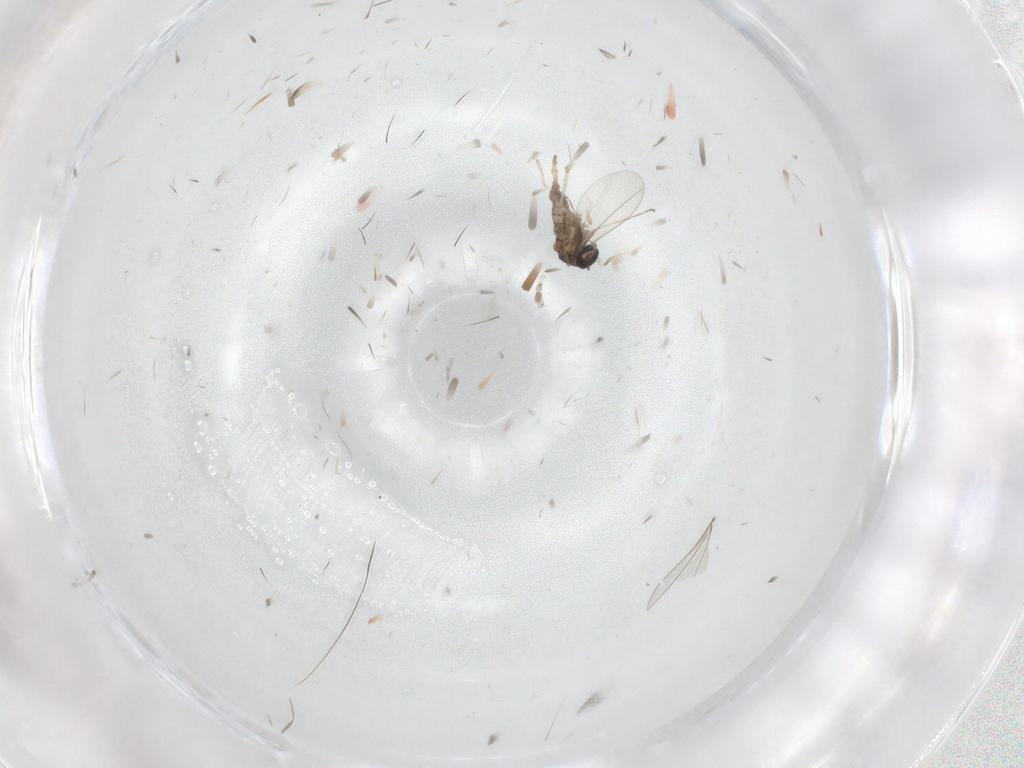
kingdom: Animalia
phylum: Arthropoda
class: Insecta
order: Diptera
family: Cecidomyiidae
